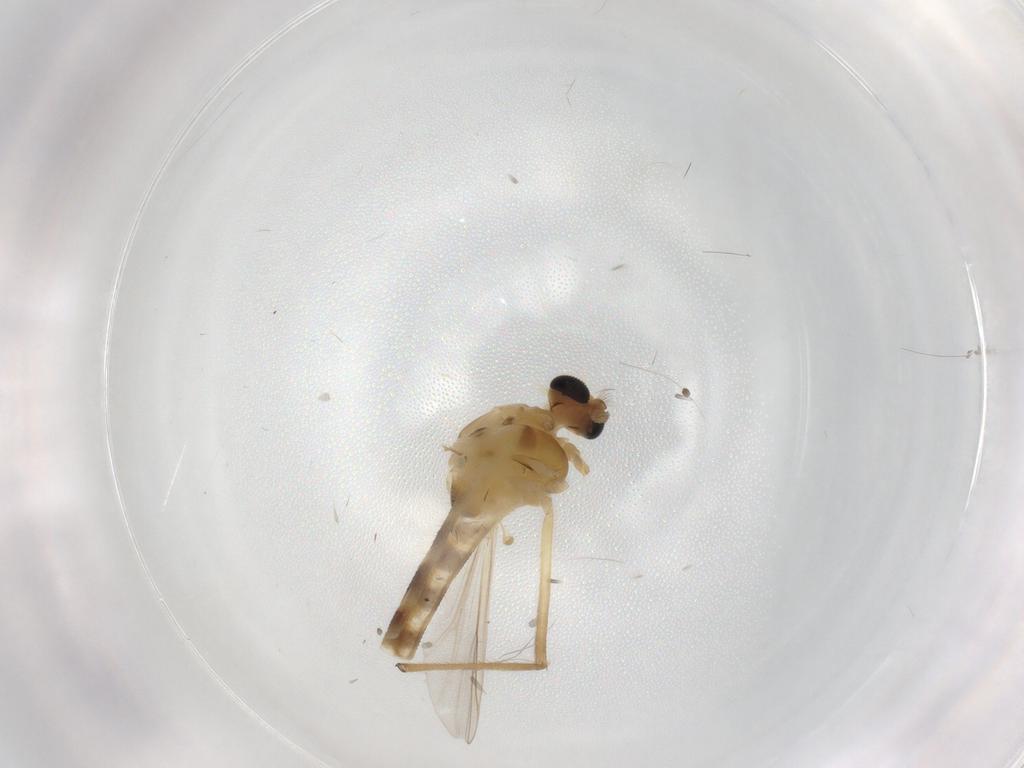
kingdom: Animalia
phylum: Arthropoda
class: Insecta
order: Diptera
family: Chironomidae
